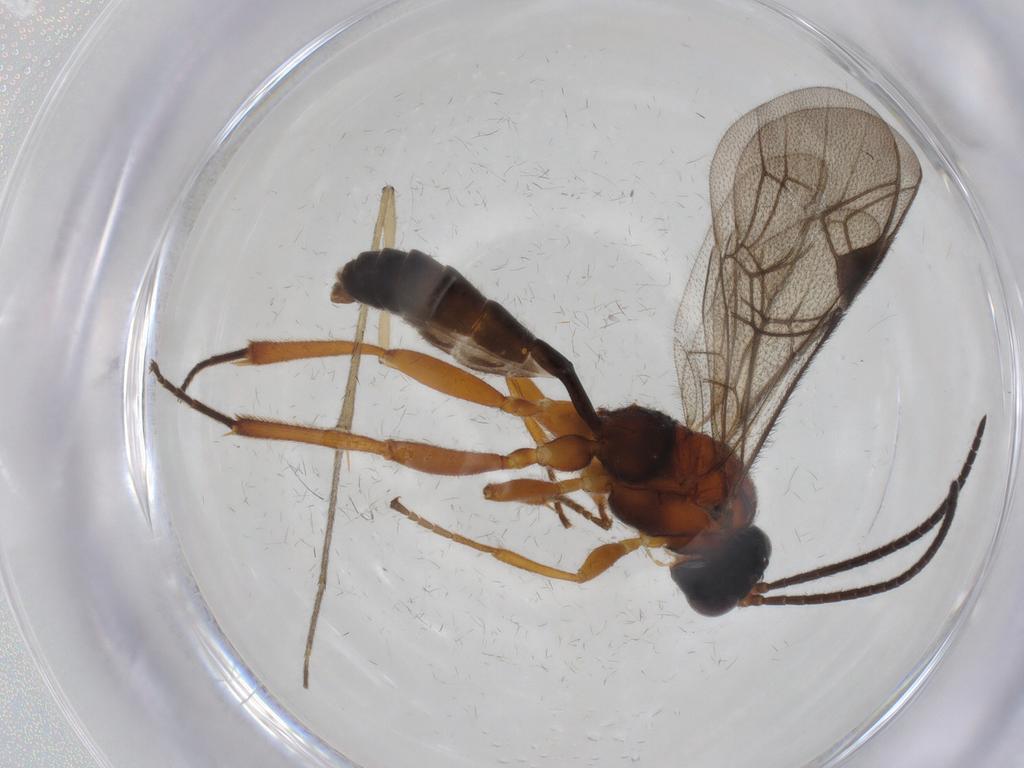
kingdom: Animalia
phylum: Arthropoda
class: Insecta
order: Hymenoptera
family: Ichneumonidae
